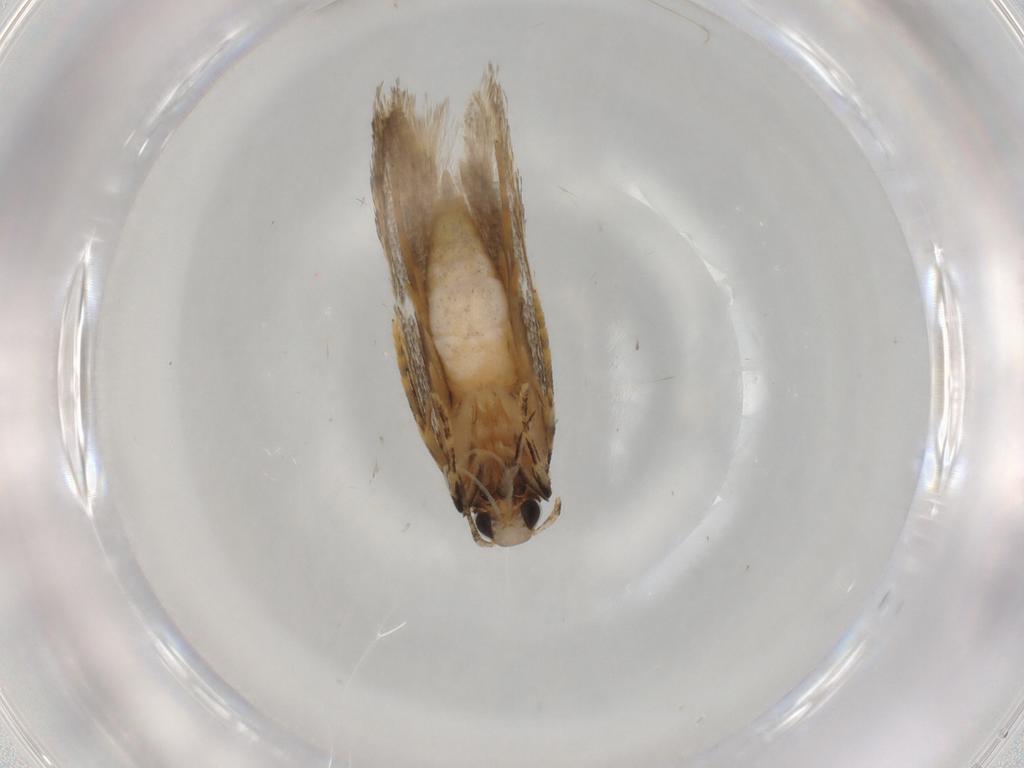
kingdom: Animalia
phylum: Arthropoda
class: Insecta
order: Lepidoptera
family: Autostichidae
